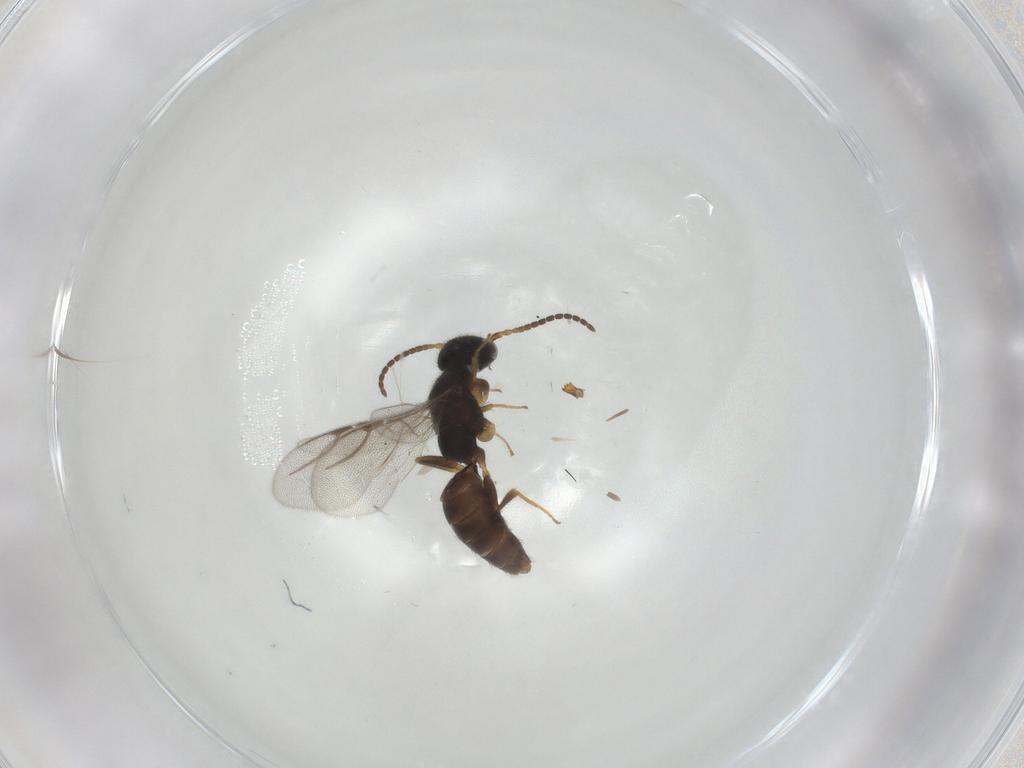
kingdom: Animalia
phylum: Arthropoda
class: Insecta
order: Hymenoptera
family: Bethylidae
